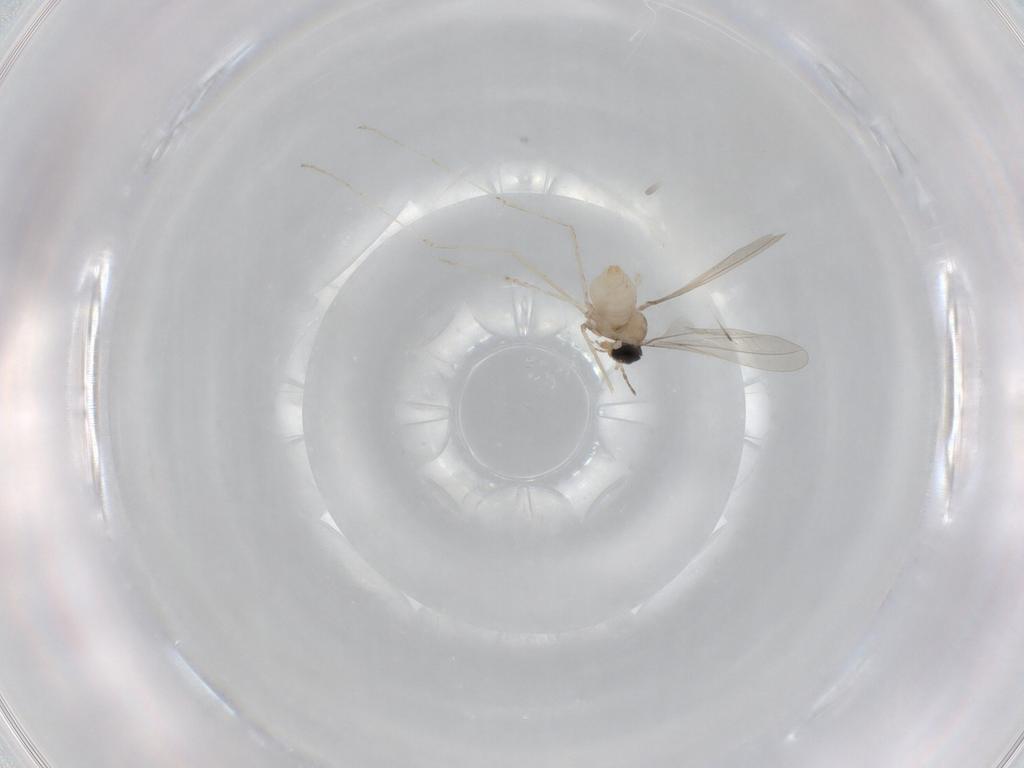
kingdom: Animalia
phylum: Arthropoda
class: Insecta
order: Diptera
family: Cecidomyiidae
